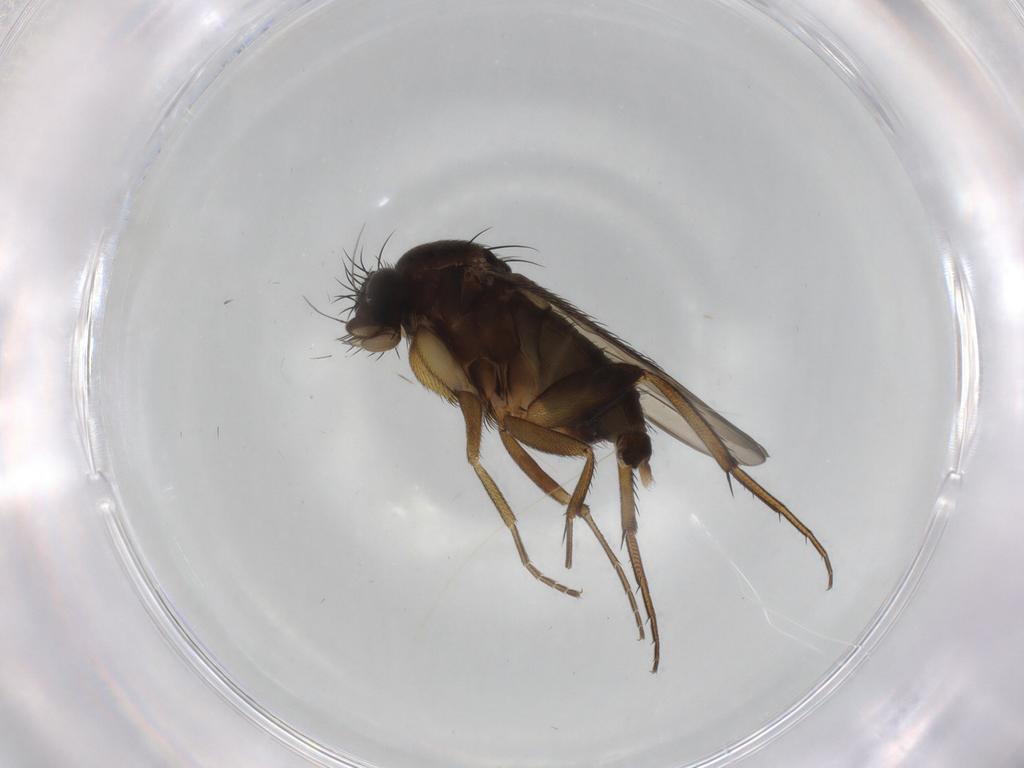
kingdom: Animalia
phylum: Arthropoda
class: Insecta
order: Diptera
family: Phoridae
